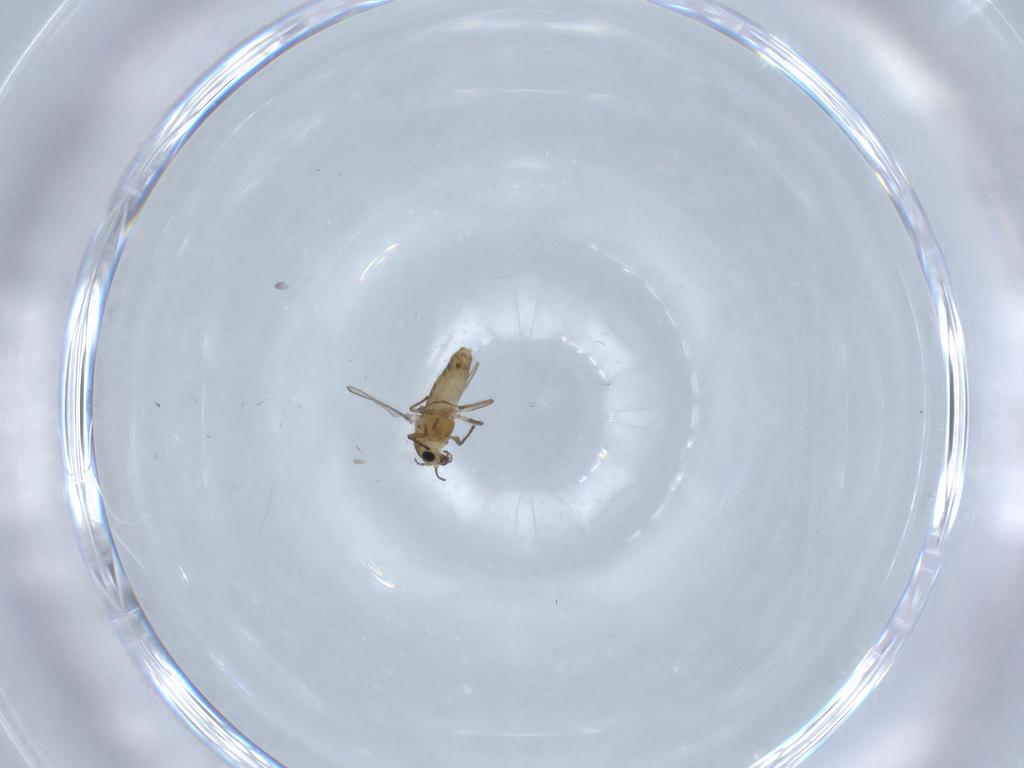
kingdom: Animalia
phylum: Arthropoda
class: Insecta
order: Diptera
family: Chironomidae
